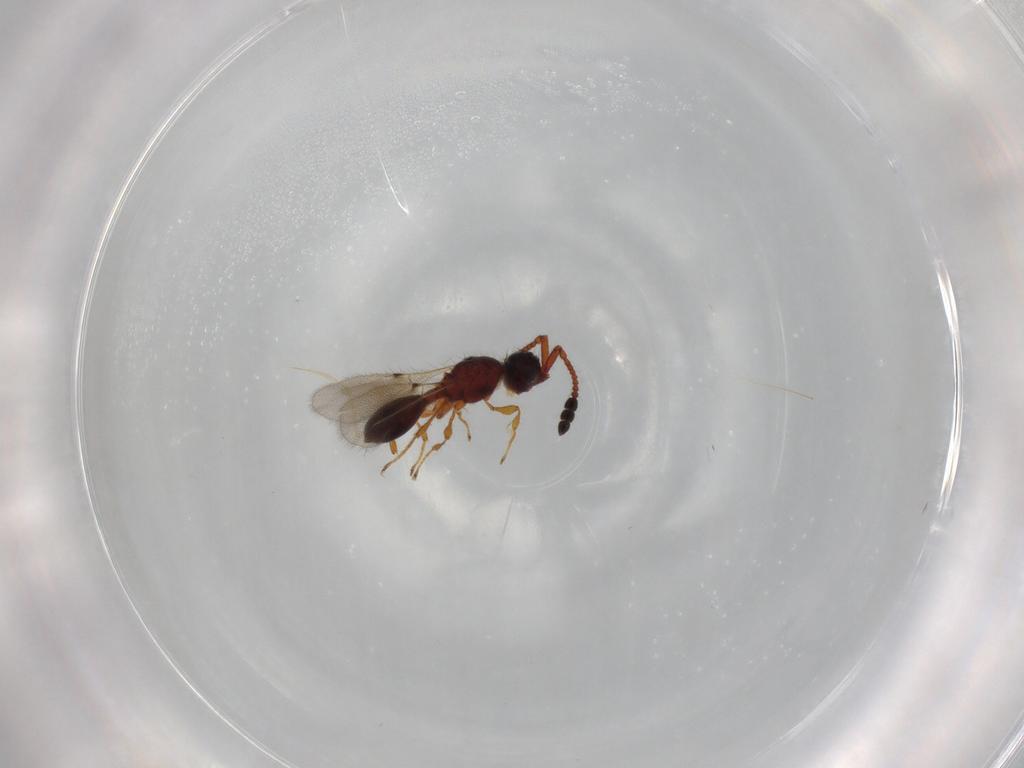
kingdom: Animalia
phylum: Arthropoda
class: Insecta
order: Hymenoptera
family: Diapriidae
